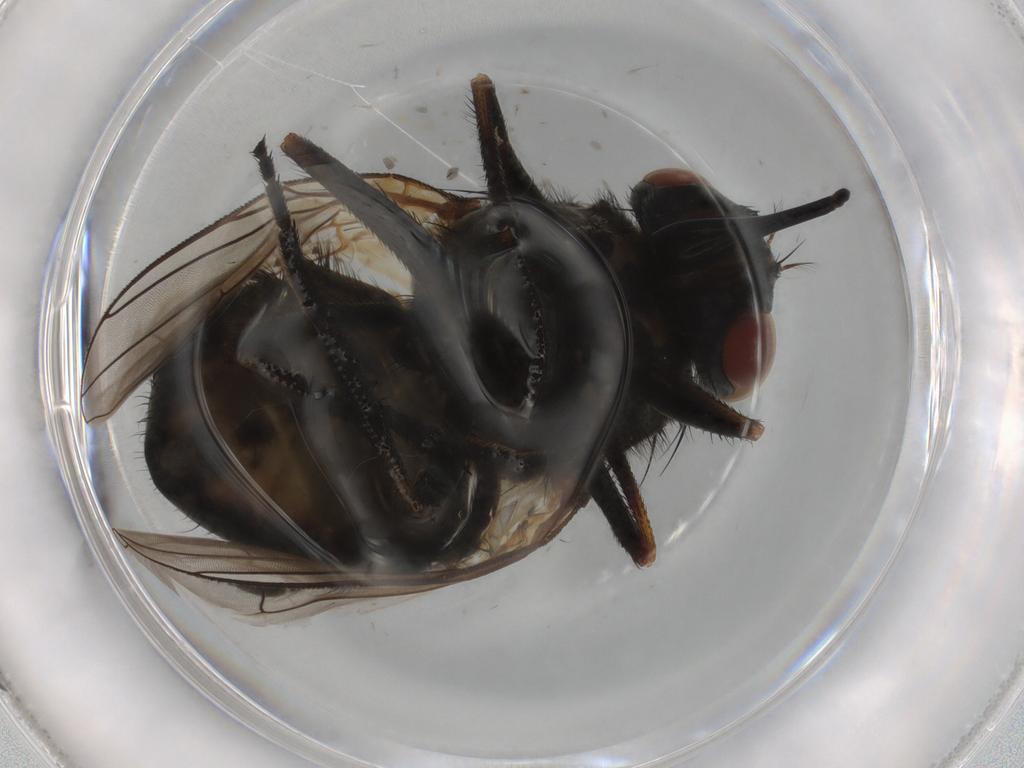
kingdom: Animalia
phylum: Arthropoda
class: Insecta
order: Diptera
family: Muscidae
